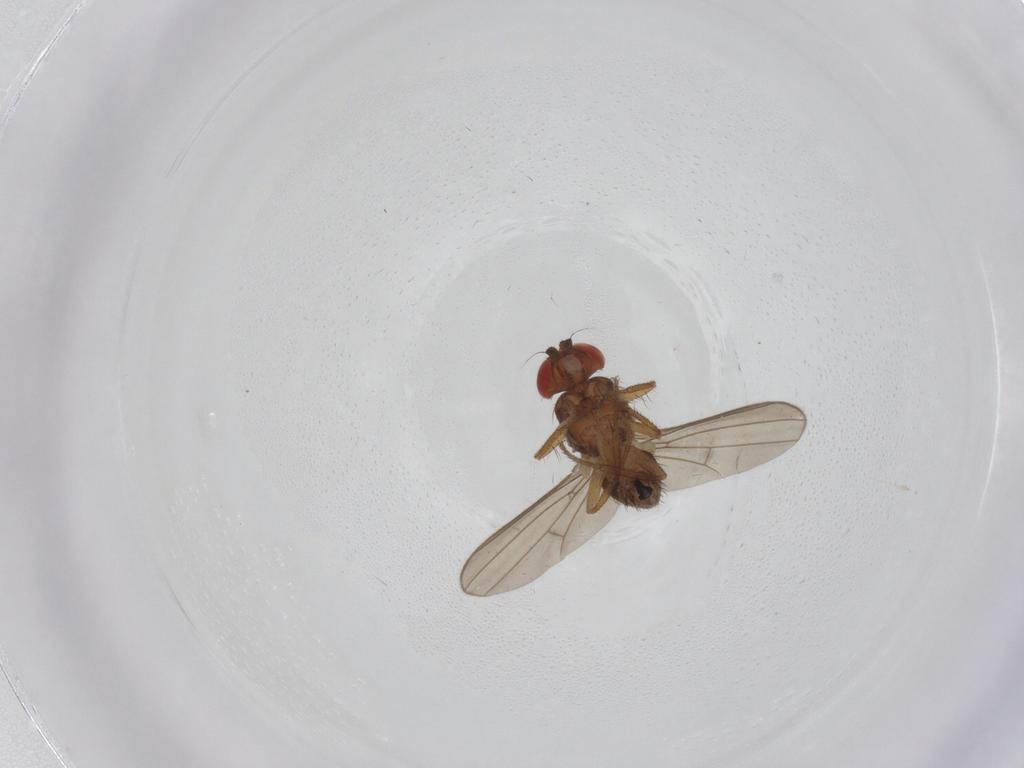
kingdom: Animalia
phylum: Arthropoda
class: Insecta
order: Diptera
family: Drosophilidae
